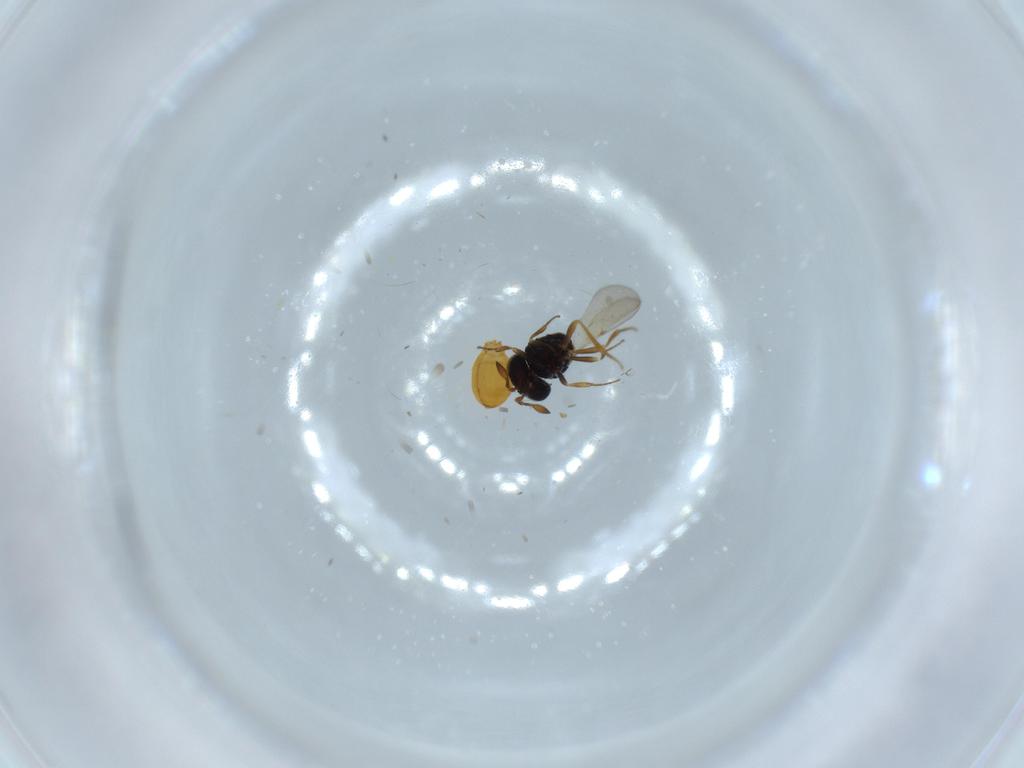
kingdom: Animalia
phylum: Arthropoda
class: Insecta
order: Hymenoptera
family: Scelionidae
